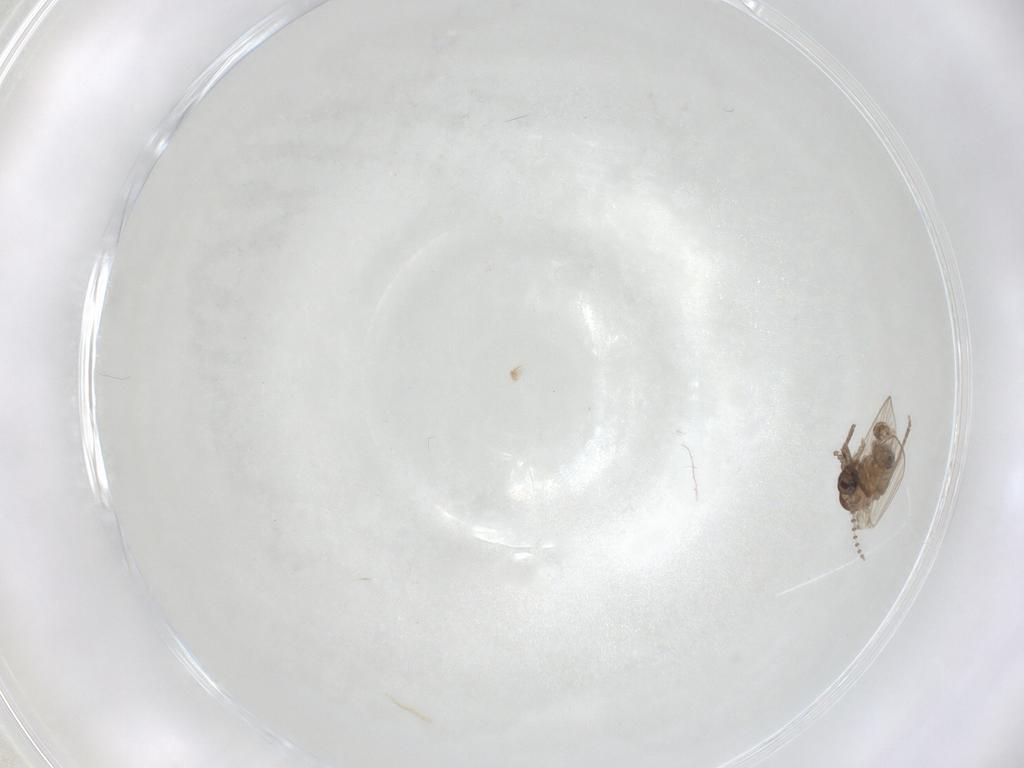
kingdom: Animalia
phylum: Arthropoda
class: Insecta
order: Diptera
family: Psychodidae
